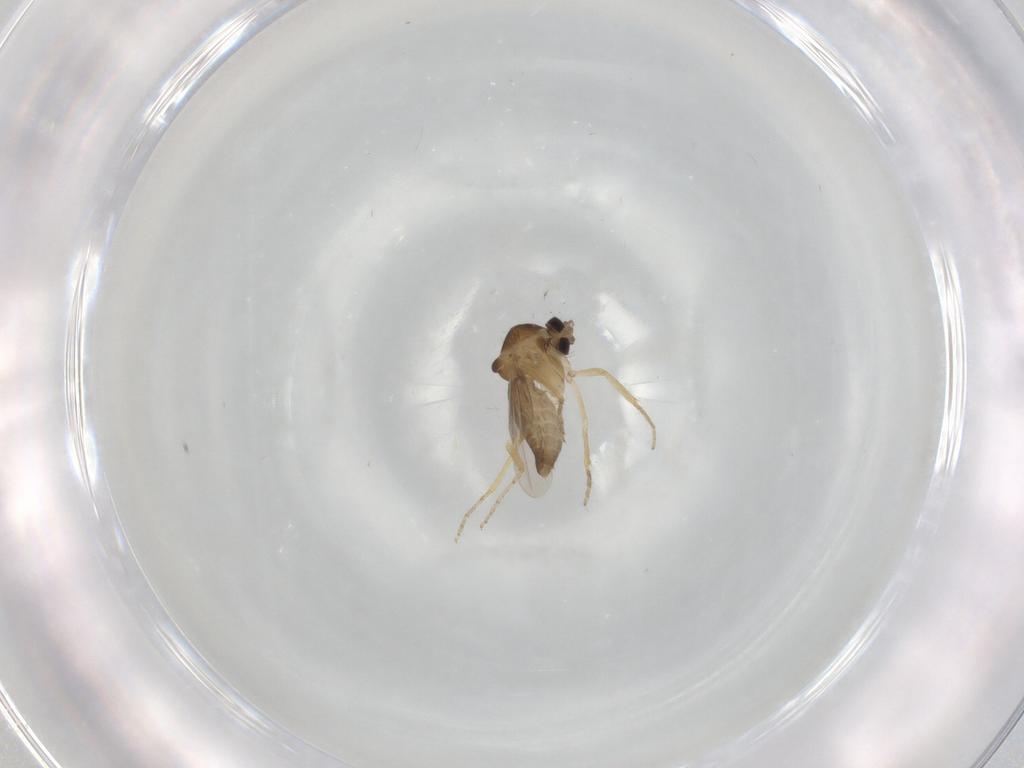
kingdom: Animalia
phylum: Arthropoda
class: Insecta
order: Diptera
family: Ceratopogonidae
